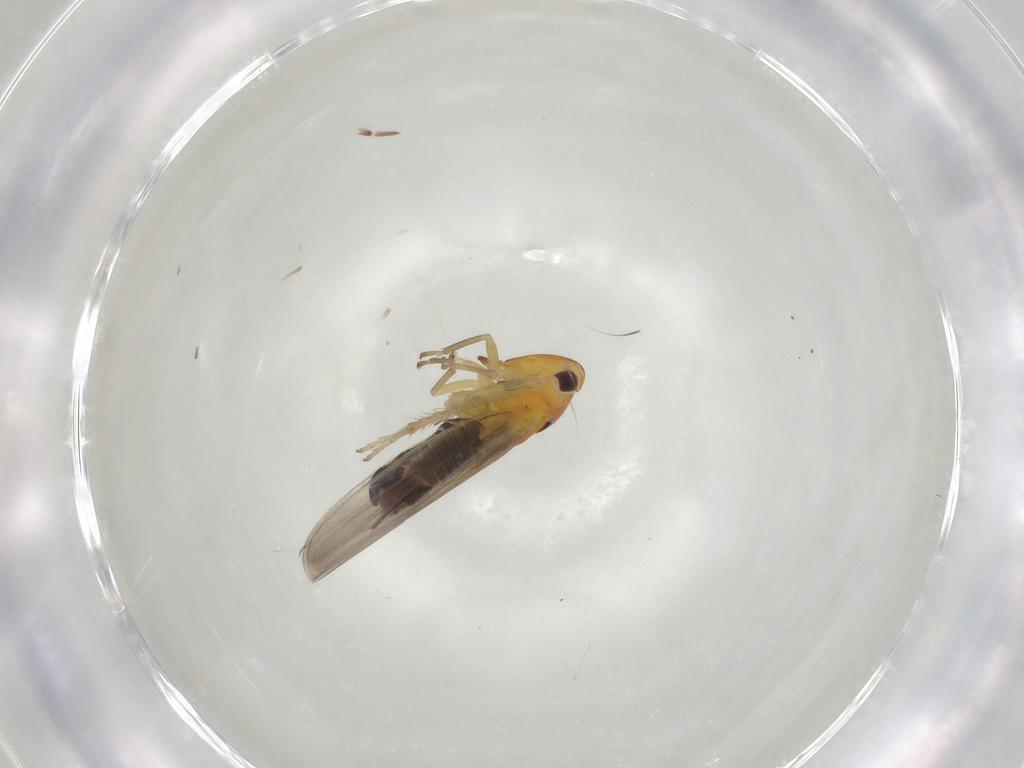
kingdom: Animalia
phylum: Arthropoda
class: Insecta
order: Hemiptera
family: Cicadellidae
